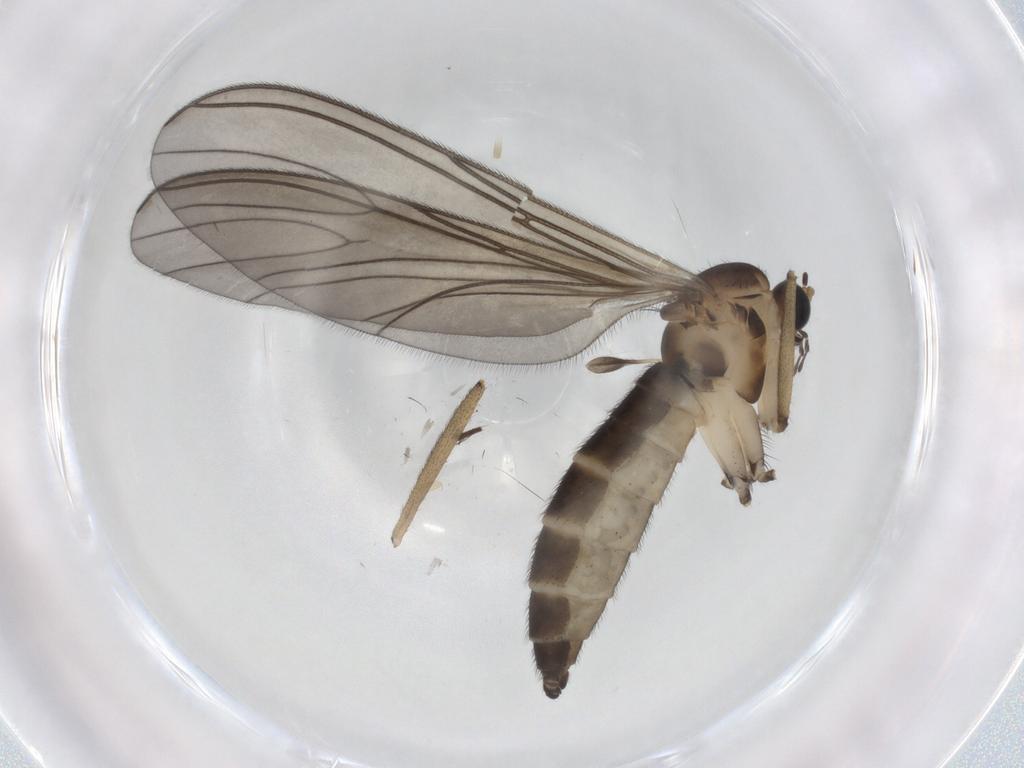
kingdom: Animalia
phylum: Arthropoda
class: Insecta
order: Diptera
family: Sciaridae
